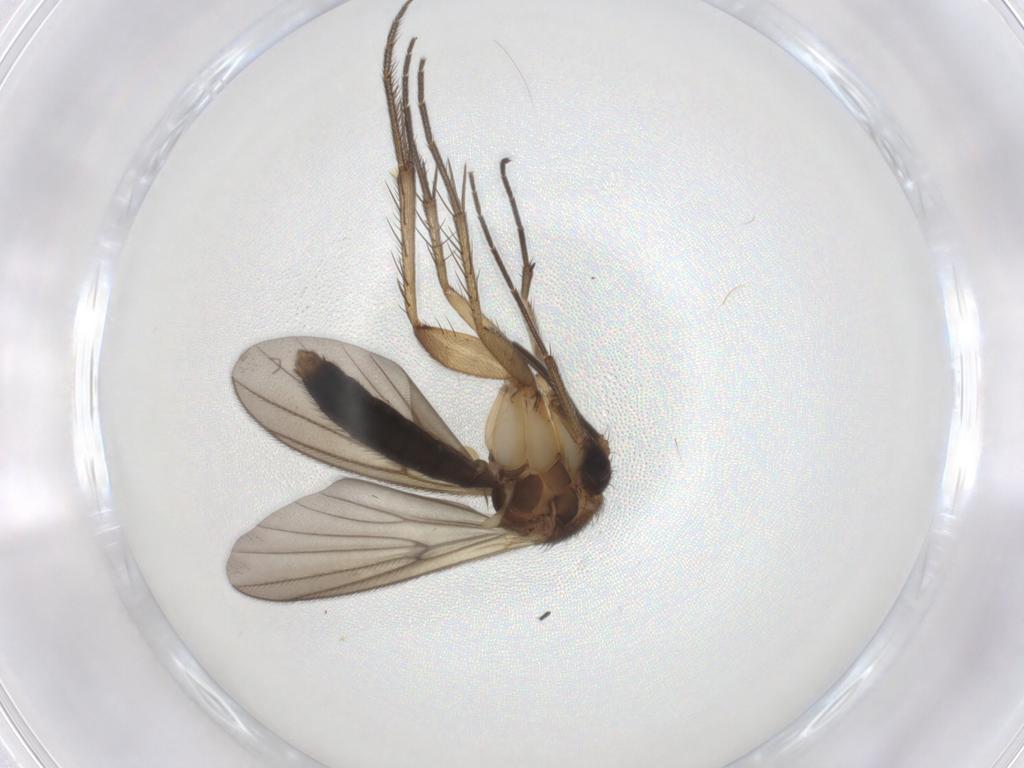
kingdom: Animalia
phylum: Arthropoda
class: Insecta
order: Diptera
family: Mycetophilidae
